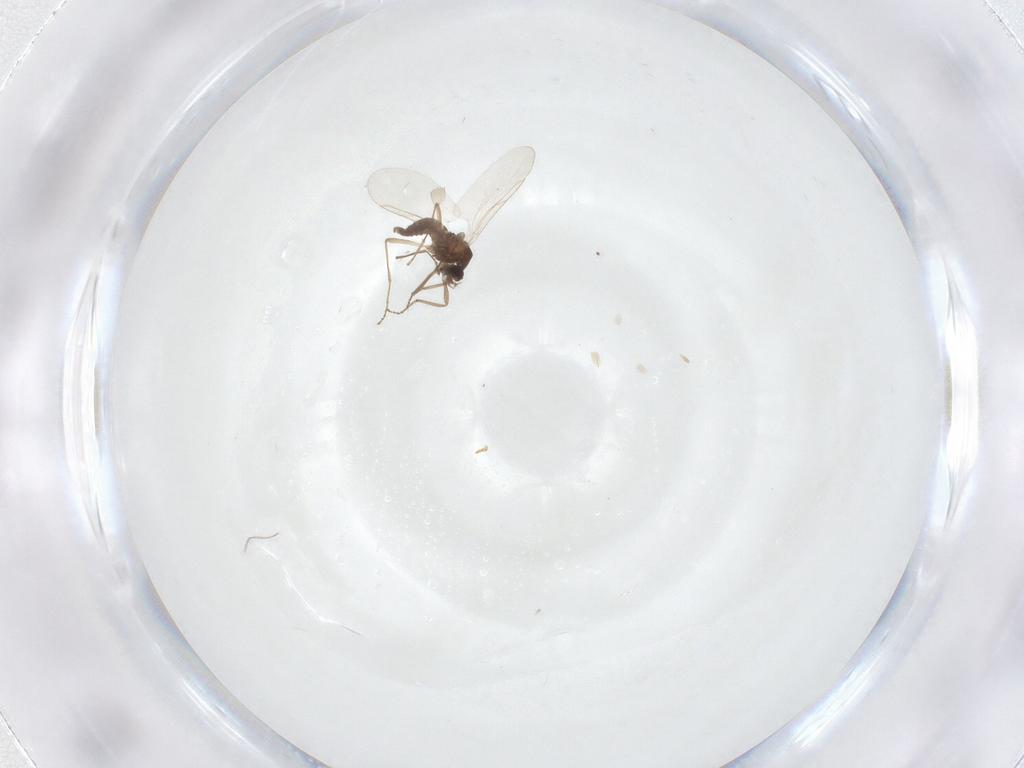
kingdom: Animalia
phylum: Arthropoda
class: Insecta
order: Diptera
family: Cecidomyiidae
